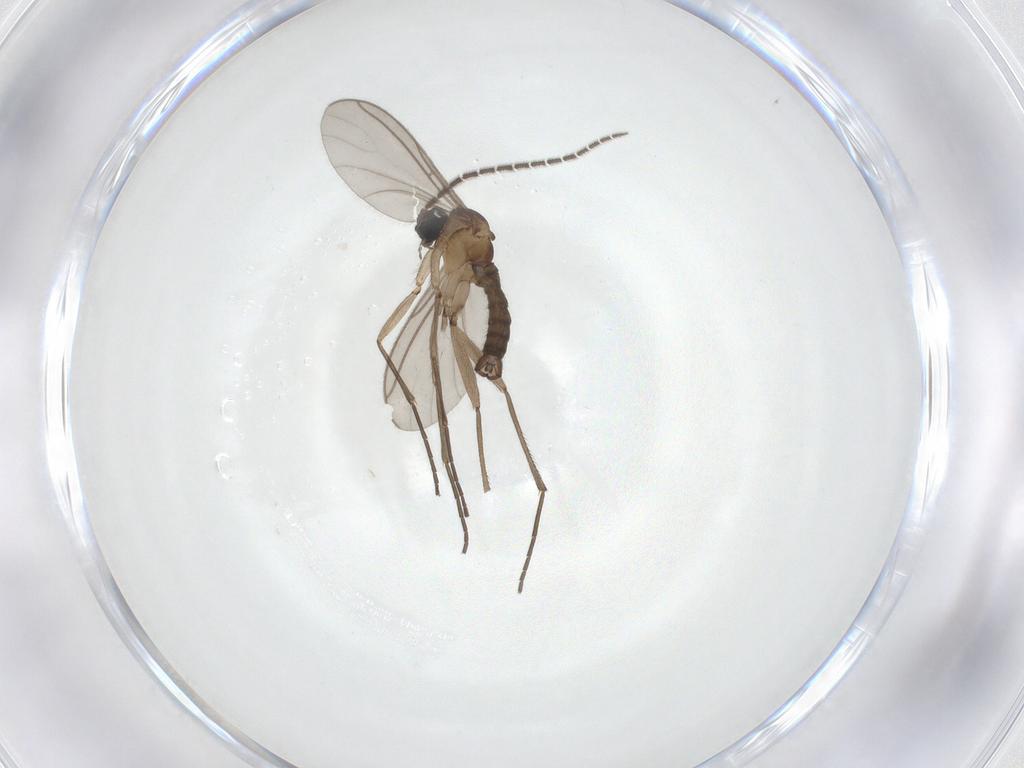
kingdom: Animalia
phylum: Arthropoda
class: Insecta
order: Diptera
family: Sciaridae
